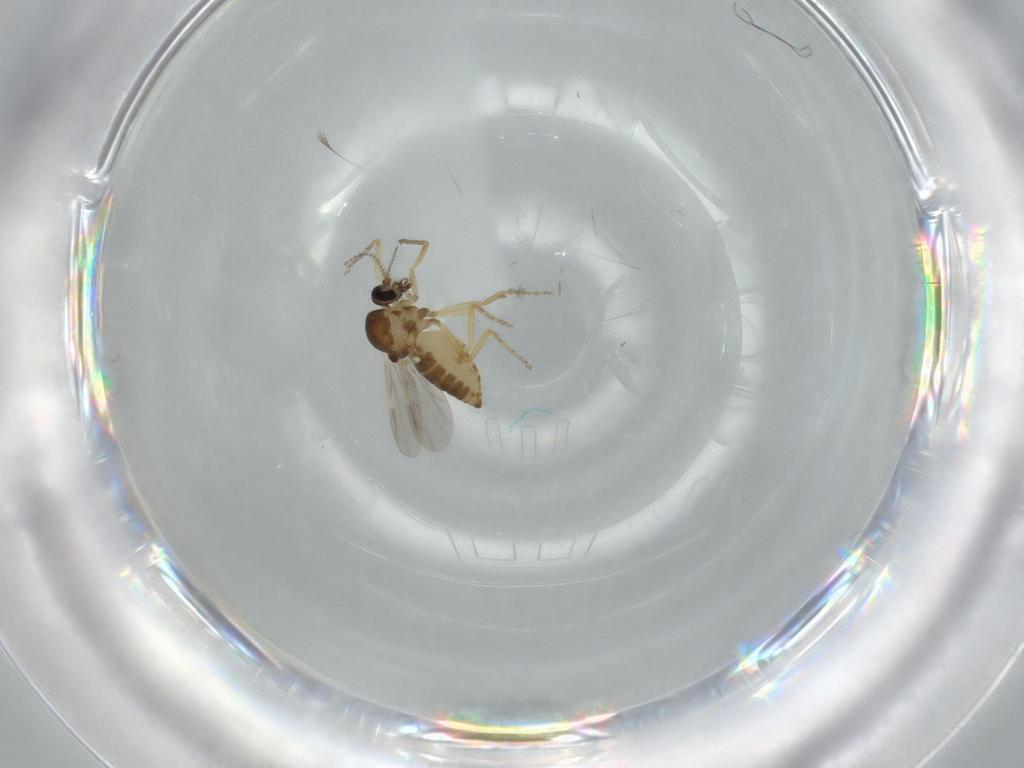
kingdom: Animalia
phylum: Arthropoda
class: Insecta
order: Diptera
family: Ceratopogonidae
